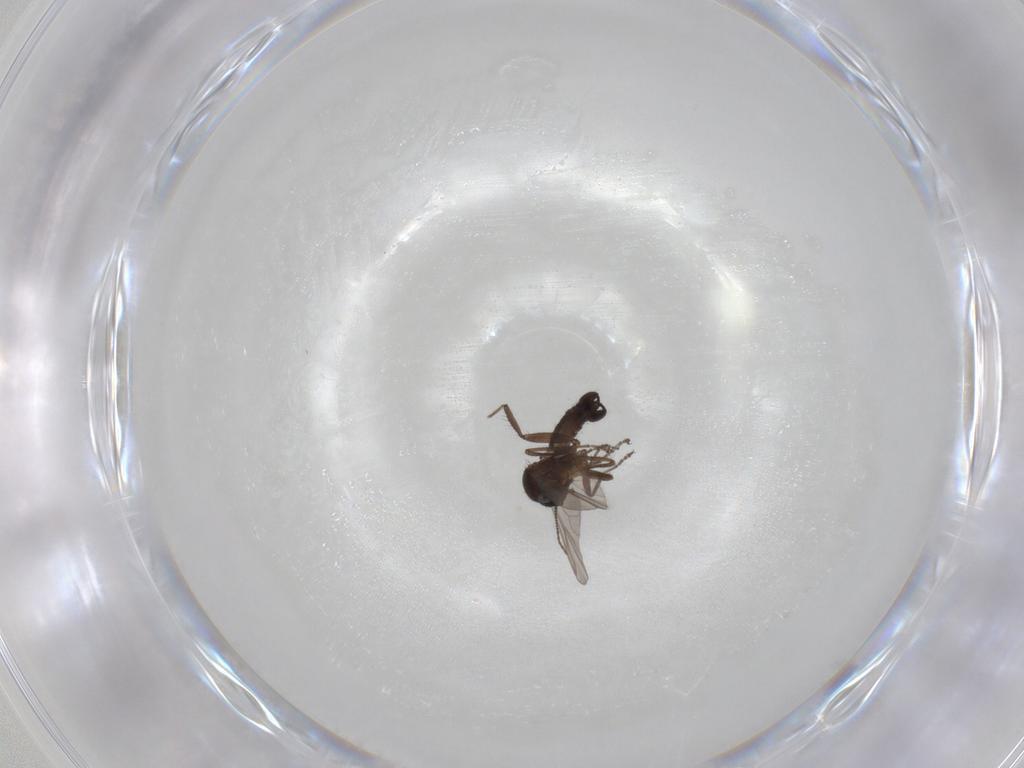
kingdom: Animalia
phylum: Arthropoda
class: Insecta
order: Diptera
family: Ceratopogonidae
